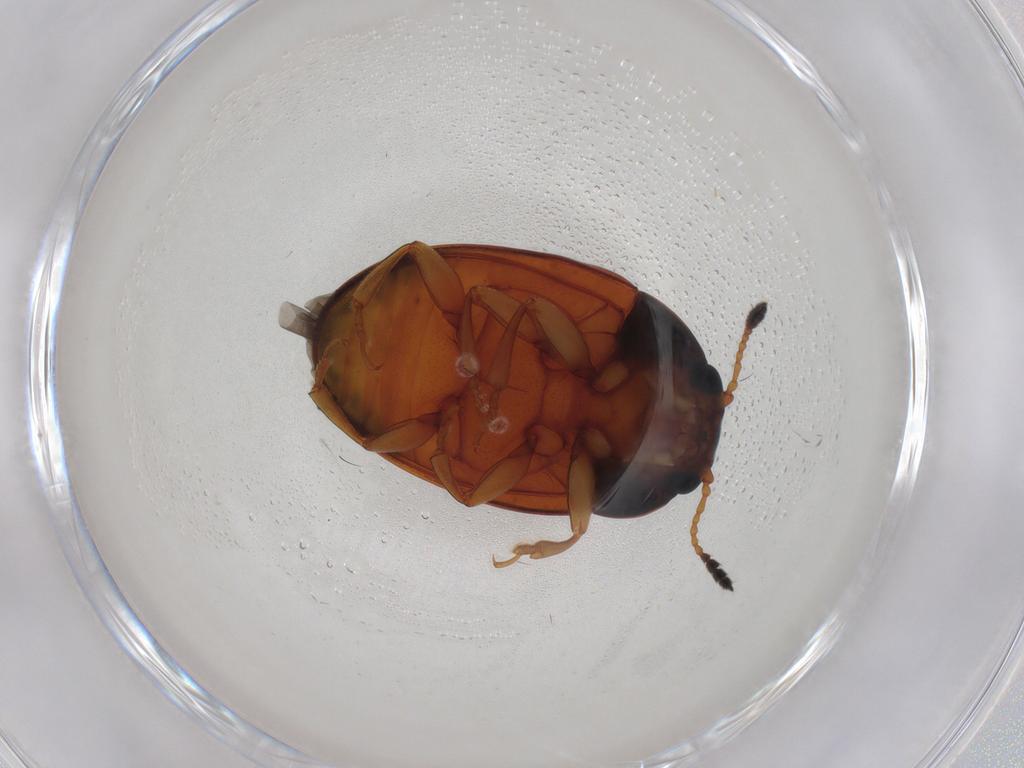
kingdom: Animalia
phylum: Arthropoda
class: Insecta
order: Coleoptera
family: Erotylidae
